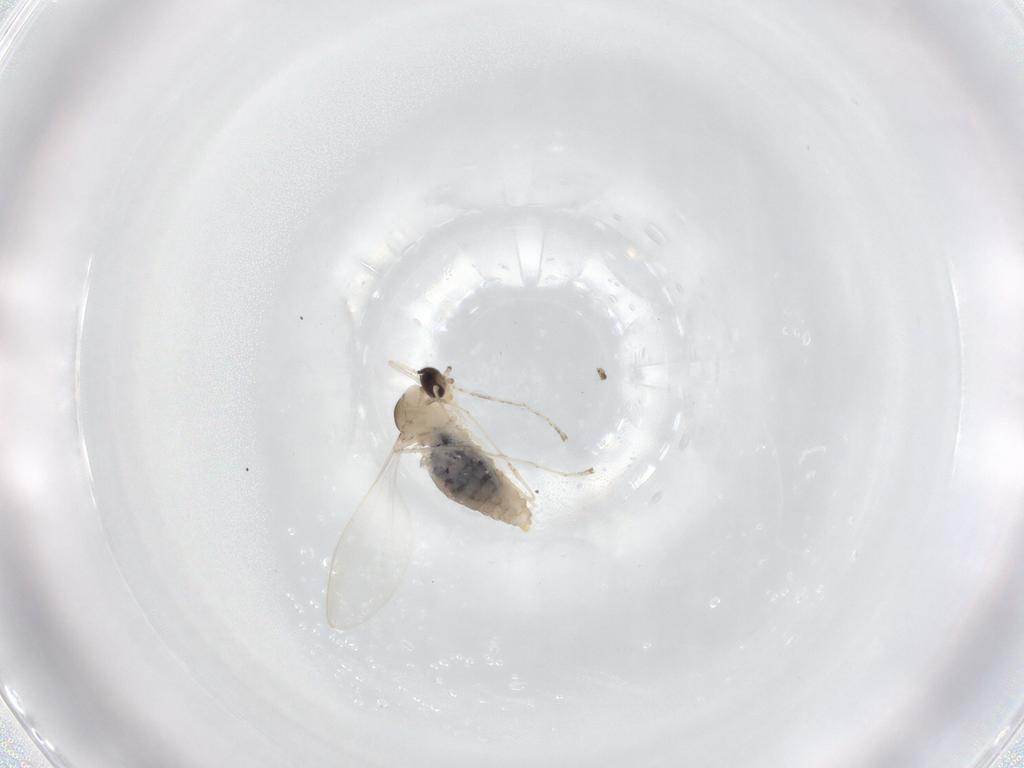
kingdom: Animalia
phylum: Arthropoda
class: Insecta
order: Diptera
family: Cecidomyiidae
